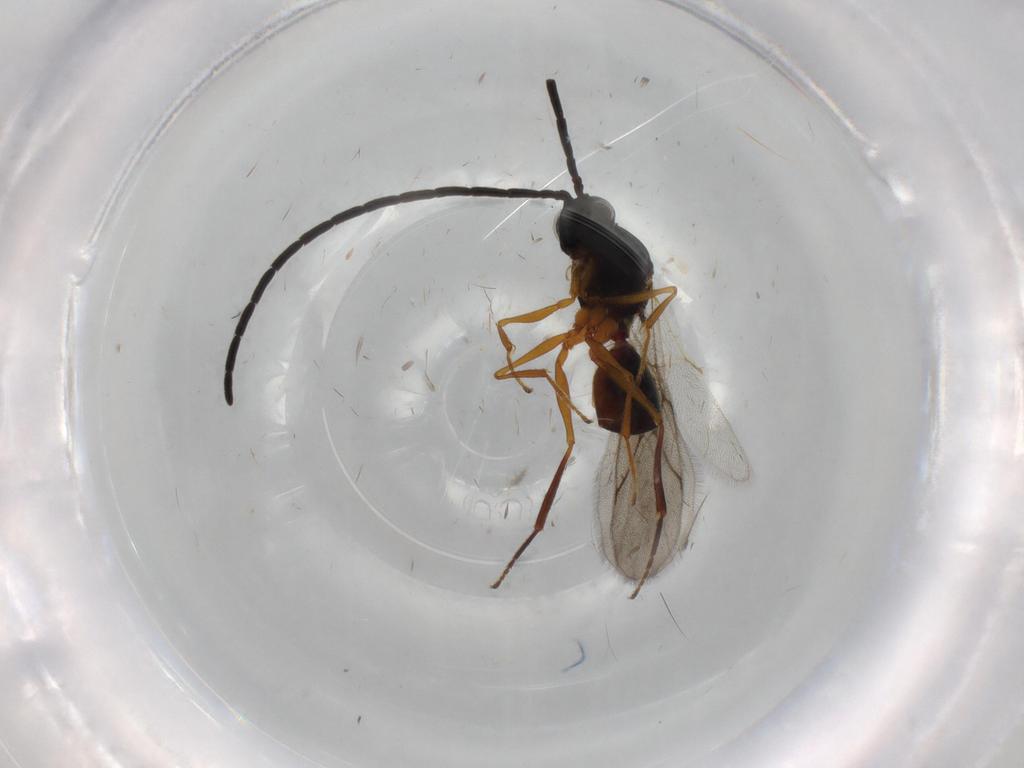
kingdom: Animalia
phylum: Arthropoda
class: Insecta
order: Hymenoptera
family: Figitidae
